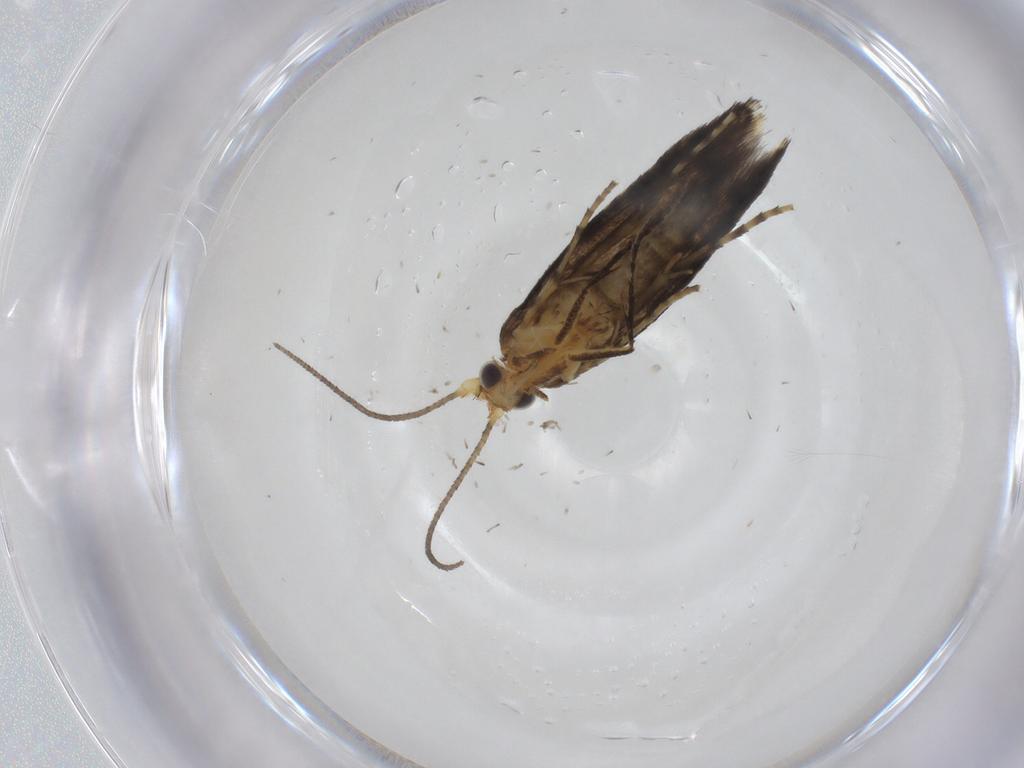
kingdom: Animalia
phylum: Arthropoda
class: Insecta
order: Lepidoptera
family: Argyresthiidae
